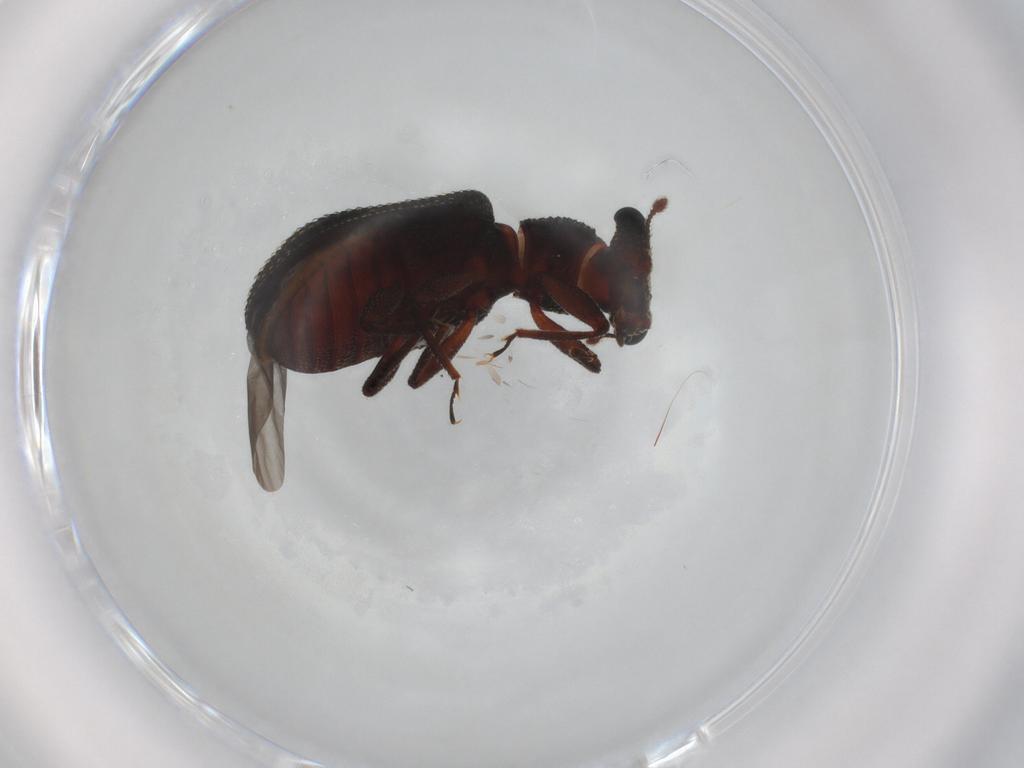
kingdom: Animalia
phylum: Arthropoda
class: Insecta
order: Coleoptera
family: Zopheridae
